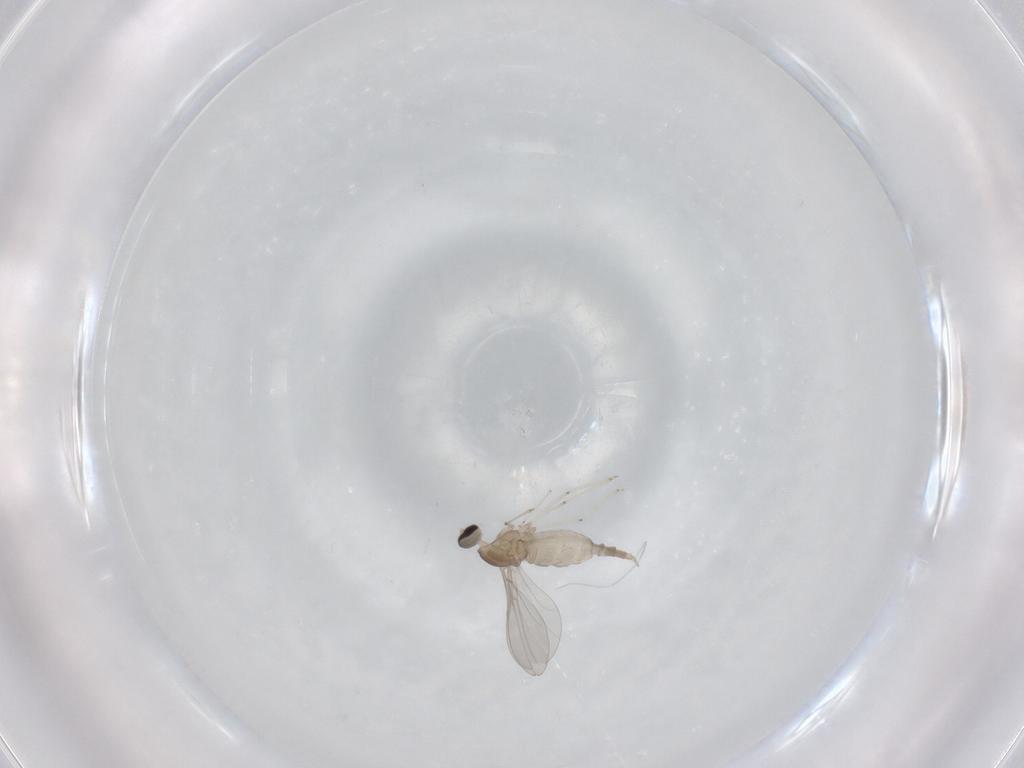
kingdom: Animalia
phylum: Arthropoda
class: Insecta
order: Diptera
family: Cecidomyiidae
